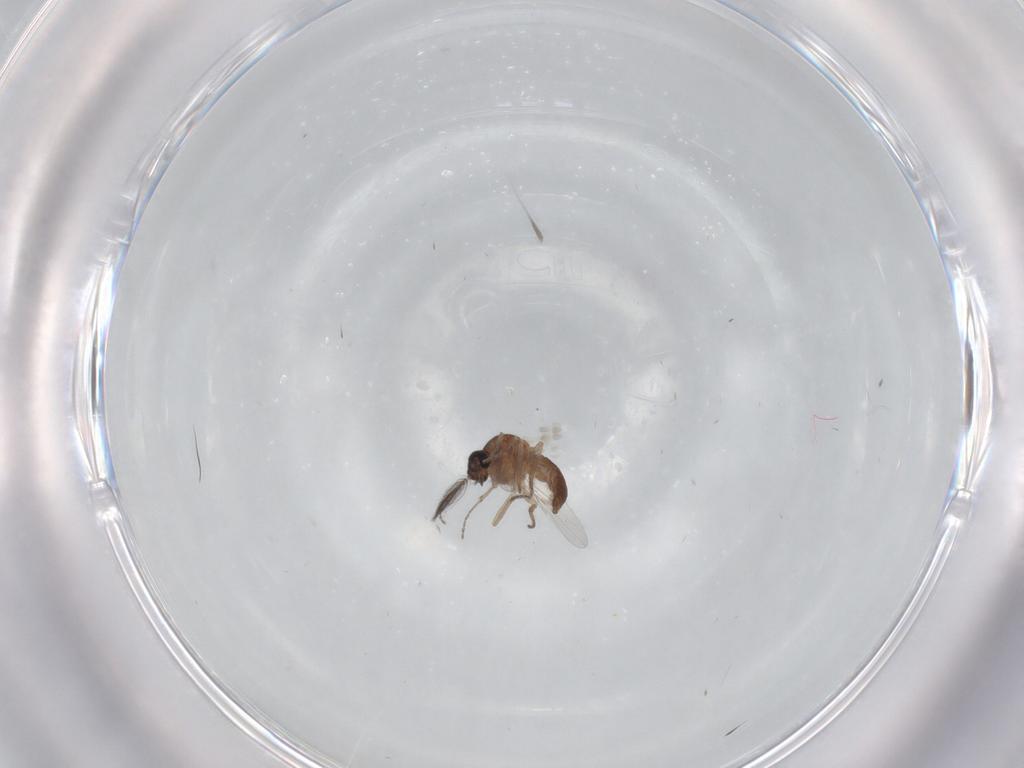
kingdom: Animalia
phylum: Arthropoda
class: Insecta
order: Diptera
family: Ceratopogonidae
